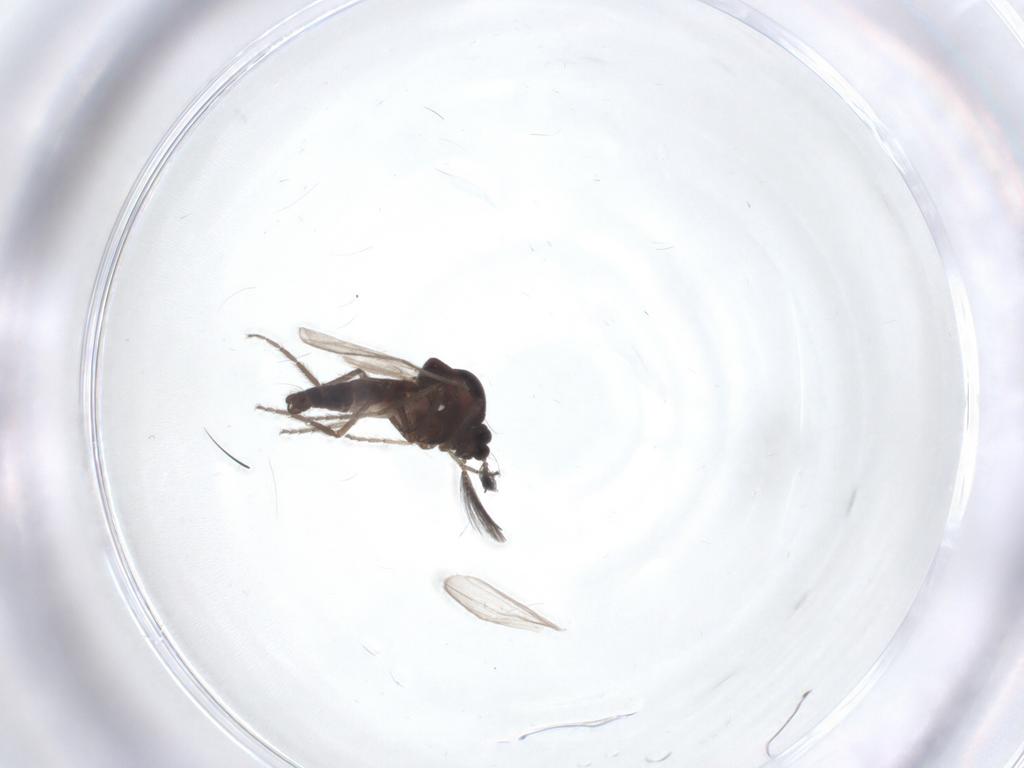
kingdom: Animalia
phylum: Arthropoda
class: Insecta
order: Diptera
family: Ceratopogonidae
